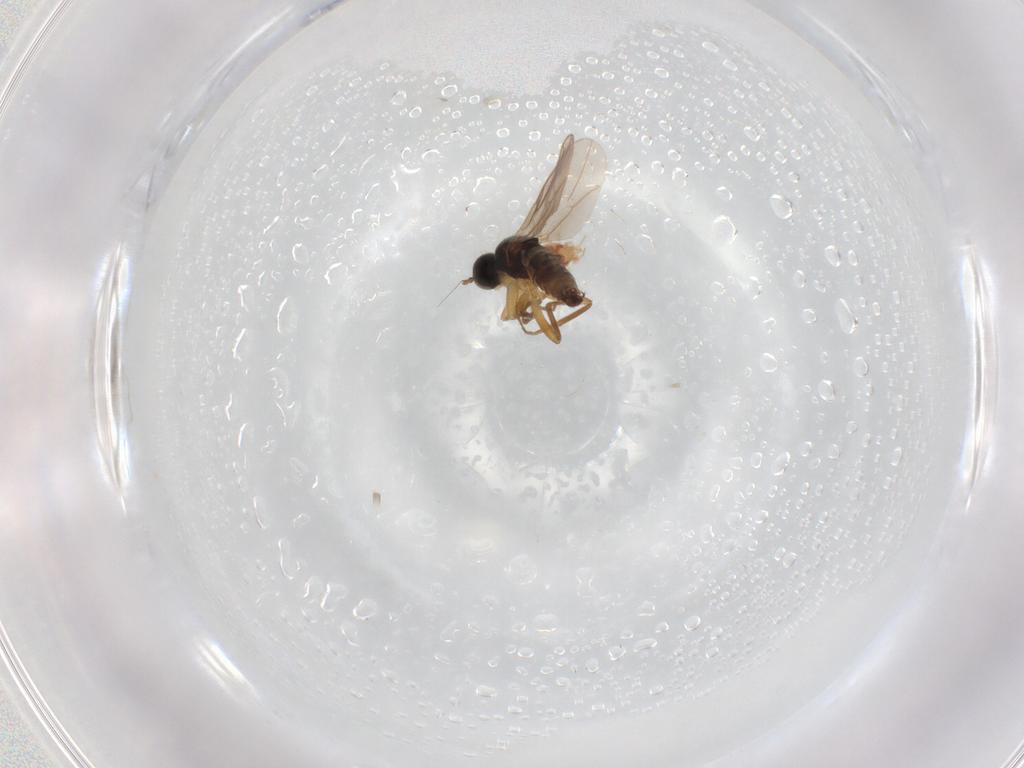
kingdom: Animalia
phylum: Arthropoda
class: Insecta
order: Diptera
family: Hybotidae
